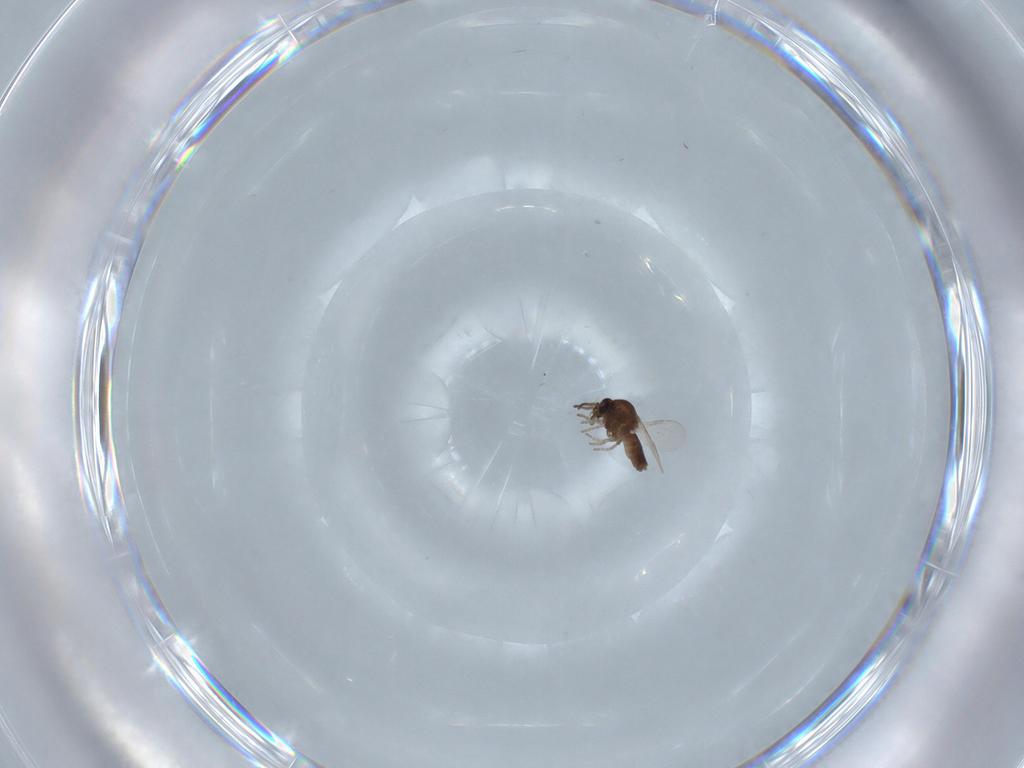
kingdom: Animalia
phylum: Arthropoda
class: Insecta
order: Diptera
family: Ceratopogonidae
